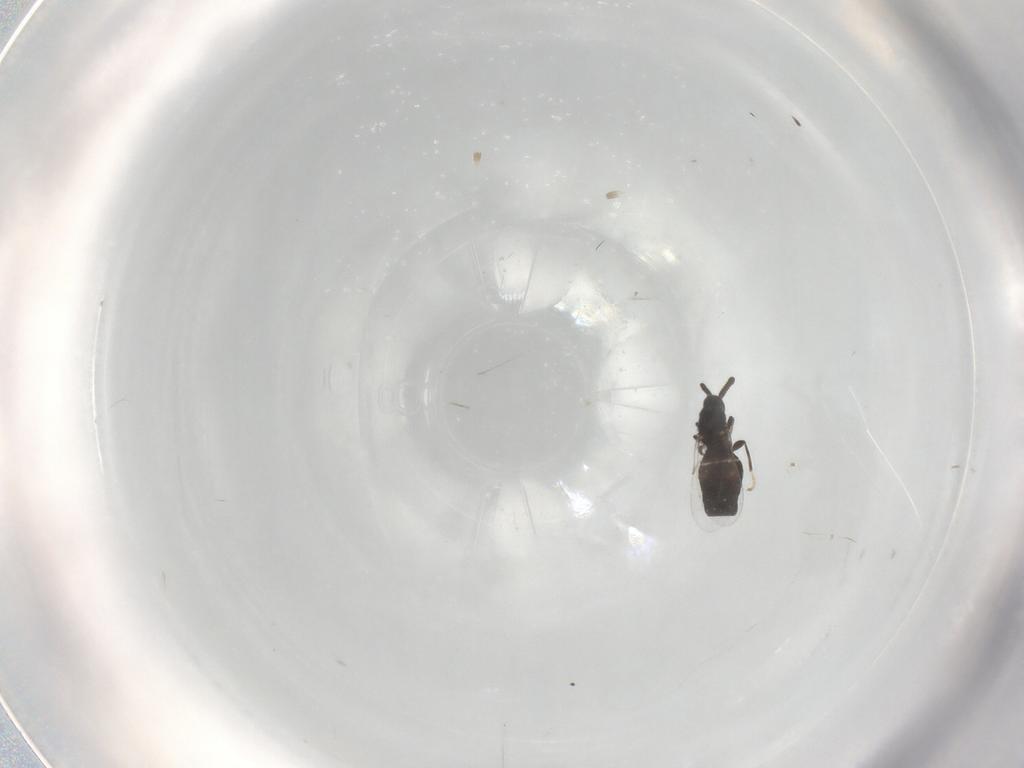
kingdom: Animalia
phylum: Arthropoda
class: Insecta
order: Diptera
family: Scatopsidae
